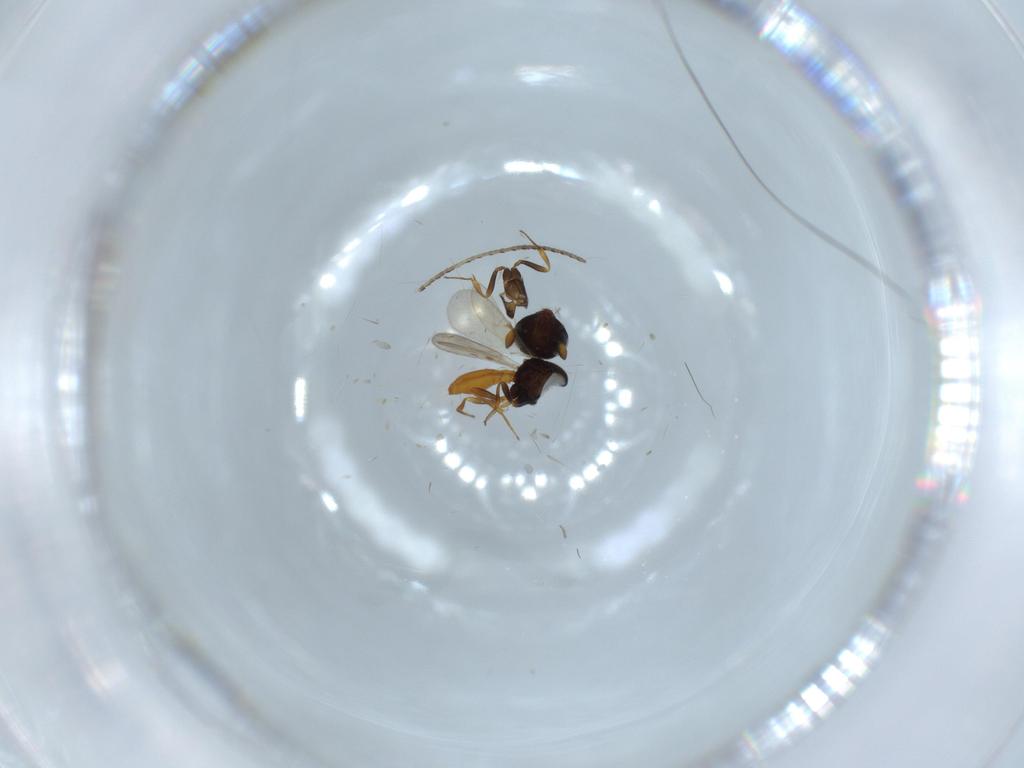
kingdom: Animalia
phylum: Arthropoda
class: Insecta
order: Hymenoptera
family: Scelionidae
